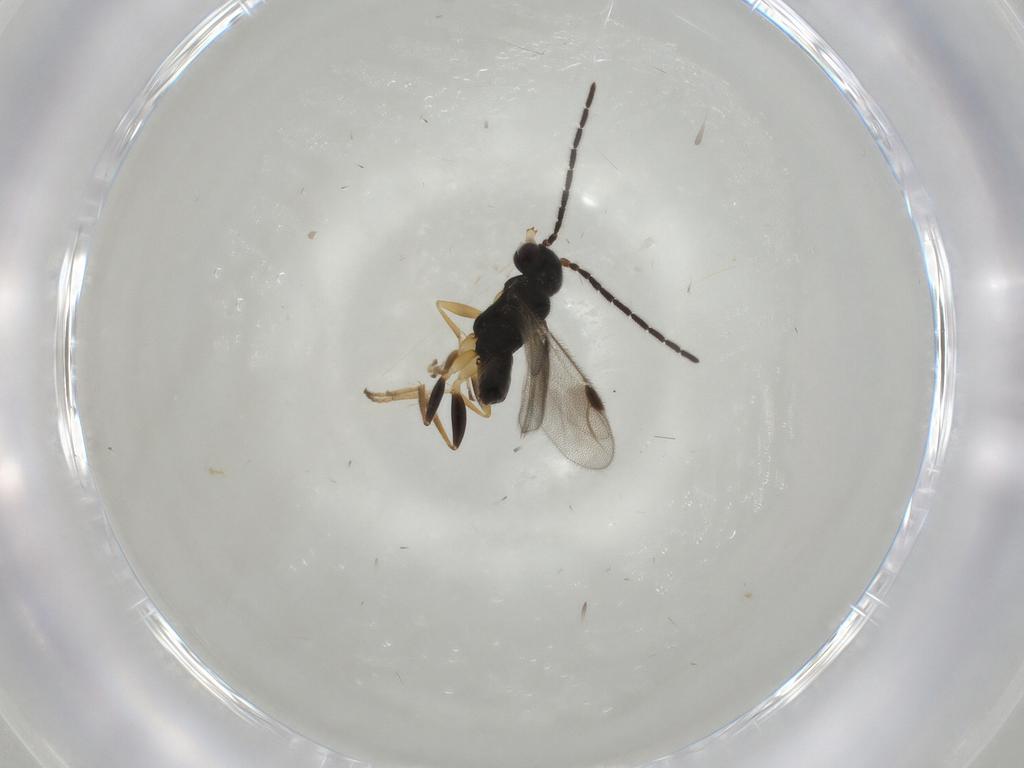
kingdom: Animalia
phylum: Arthropoda
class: Insecta
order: Hymenoptera
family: Dryinidae
